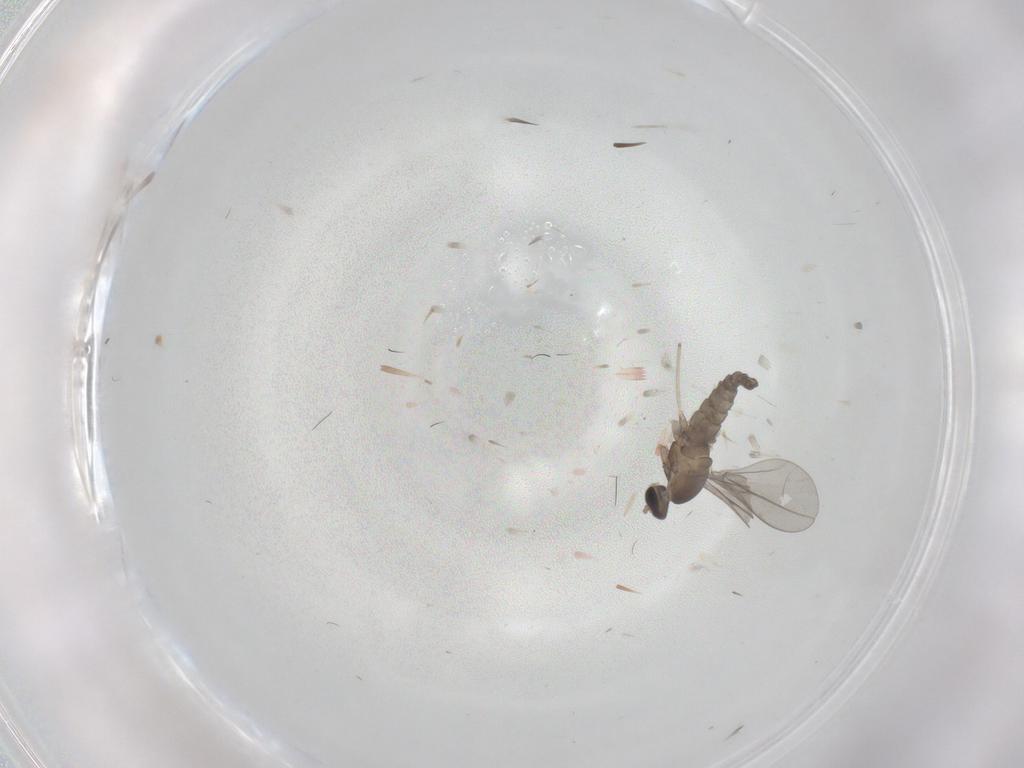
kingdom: Animalia
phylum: Arthropoda
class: Insecta
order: Diptera
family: Cecidomyiidae
